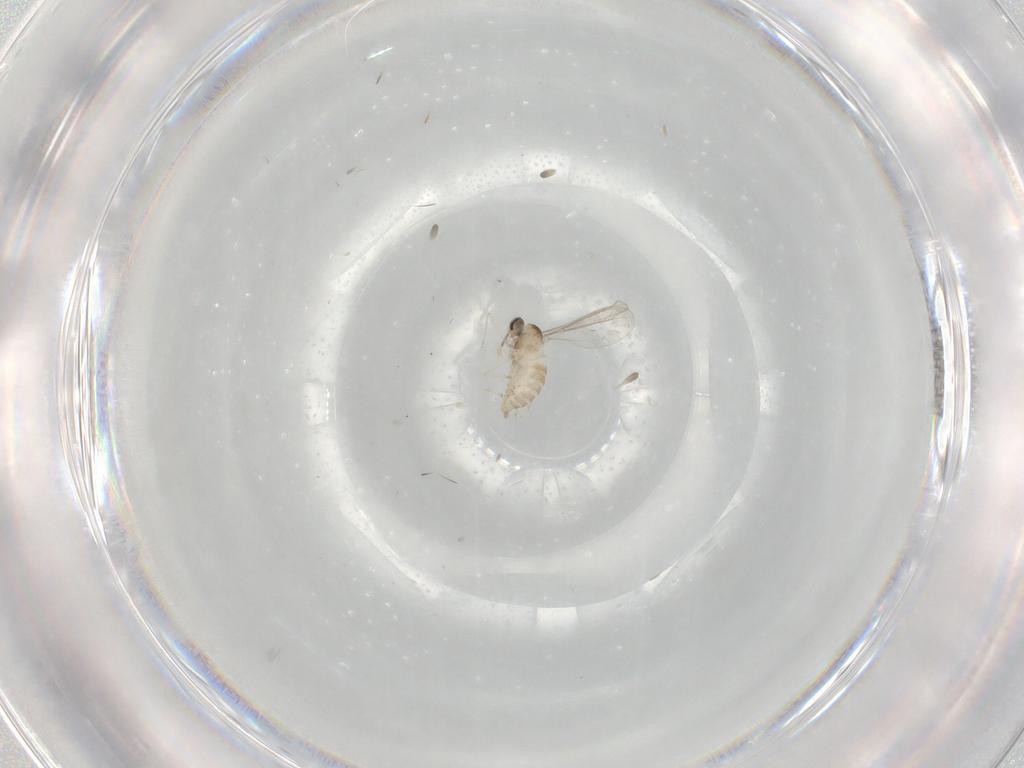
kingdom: Animalia
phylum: Arthropoda
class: Insecta
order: Diptera
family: Cecidomyiidae
